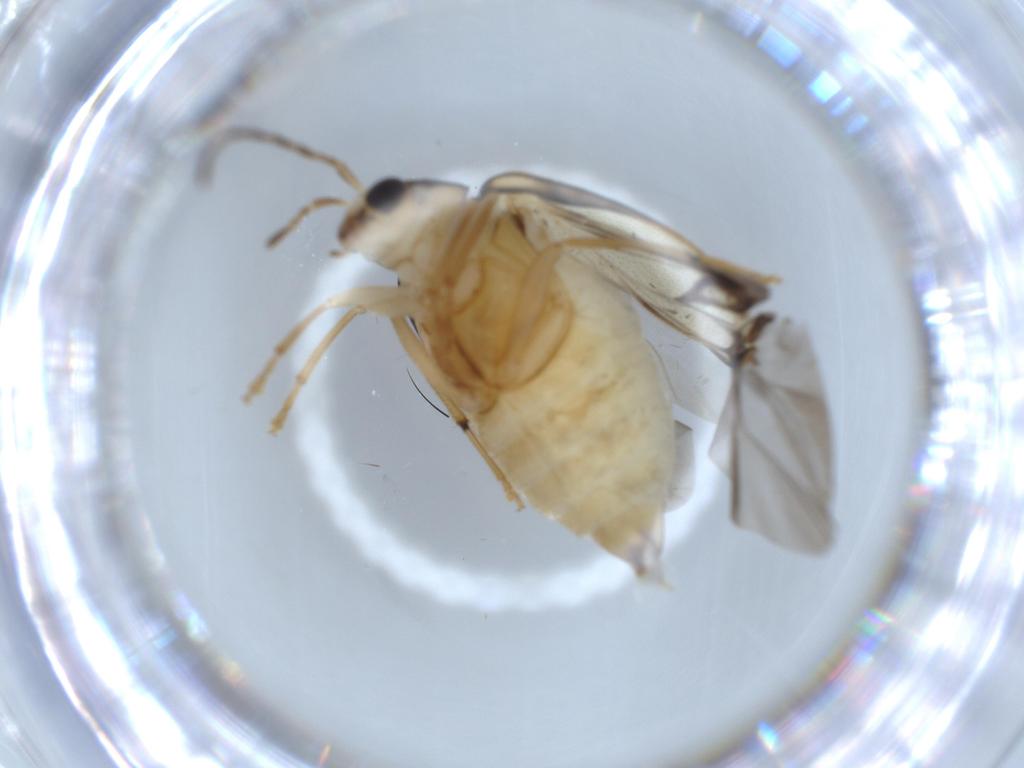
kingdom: Animalia
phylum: Arthropoda
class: Insecta
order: Coleoptera
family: Chrysomelidae
